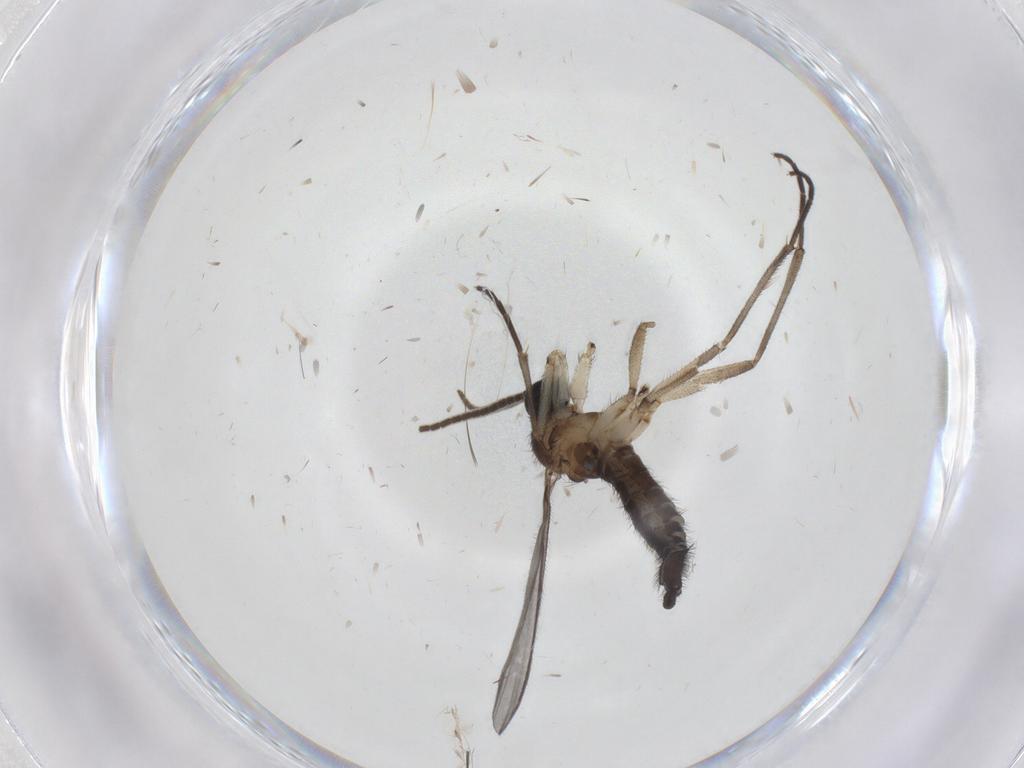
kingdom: Animalia
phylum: Arthropoda
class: Insecta
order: Diptera
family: Sciaridae
